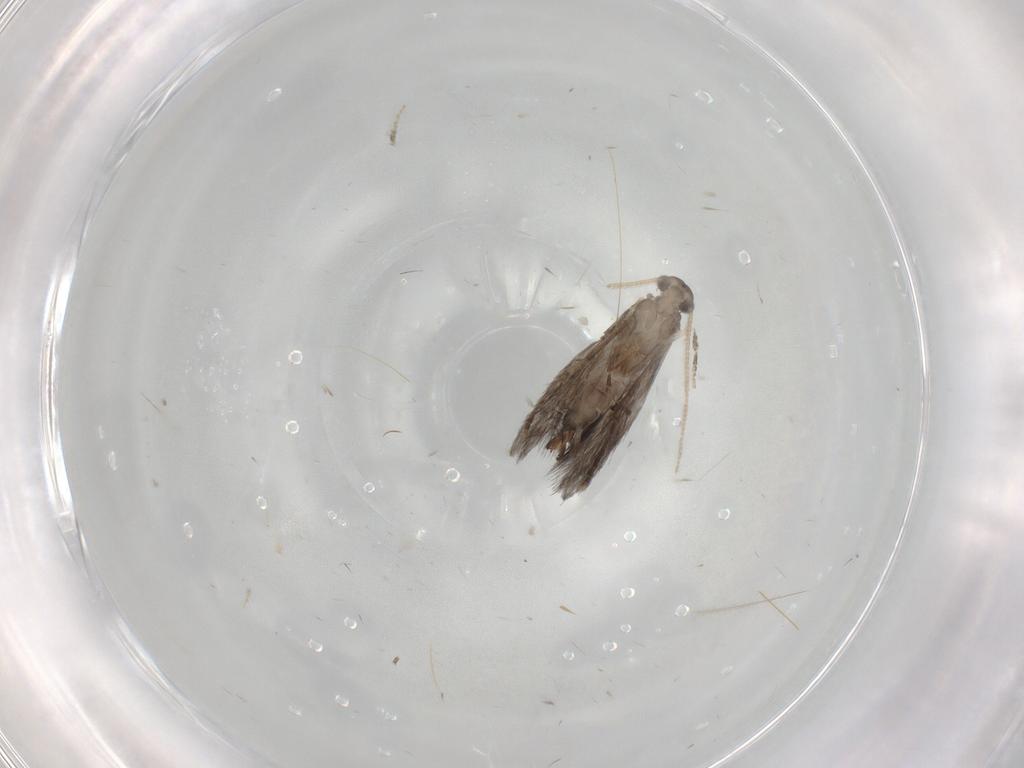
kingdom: Animalia
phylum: Arthropoda
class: Insecta
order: Trichoptera
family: Hydroptilidae
